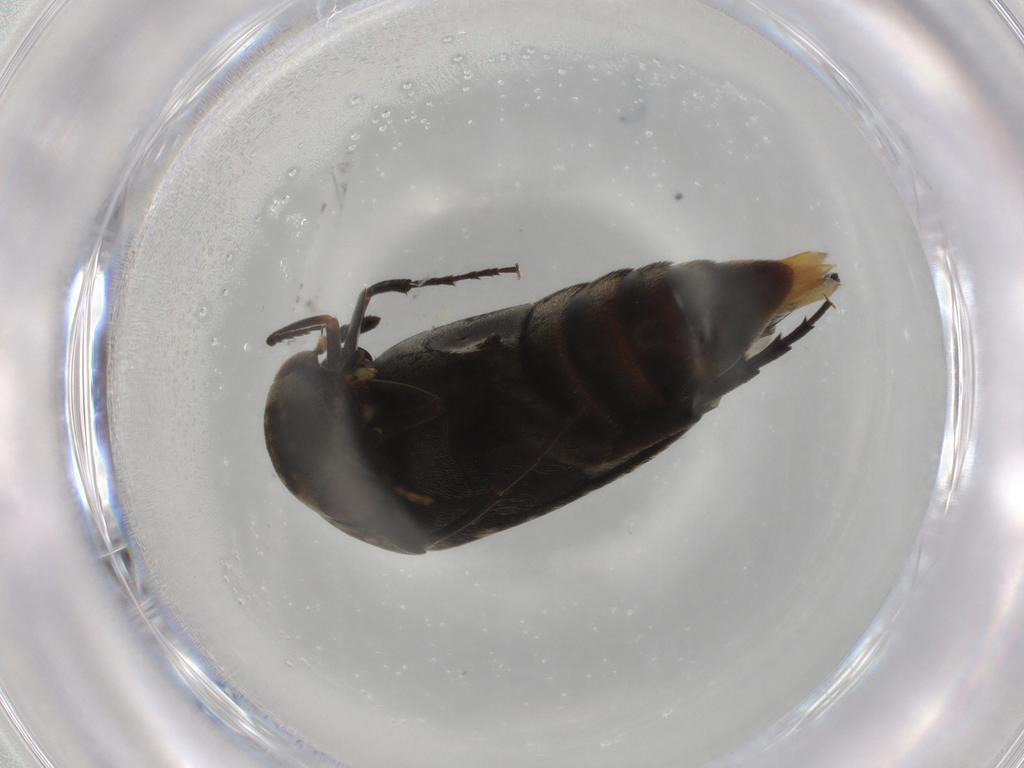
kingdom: Animalia
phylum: Arthropoda
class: Insecta
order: Coleoptera
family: Mordellidae
